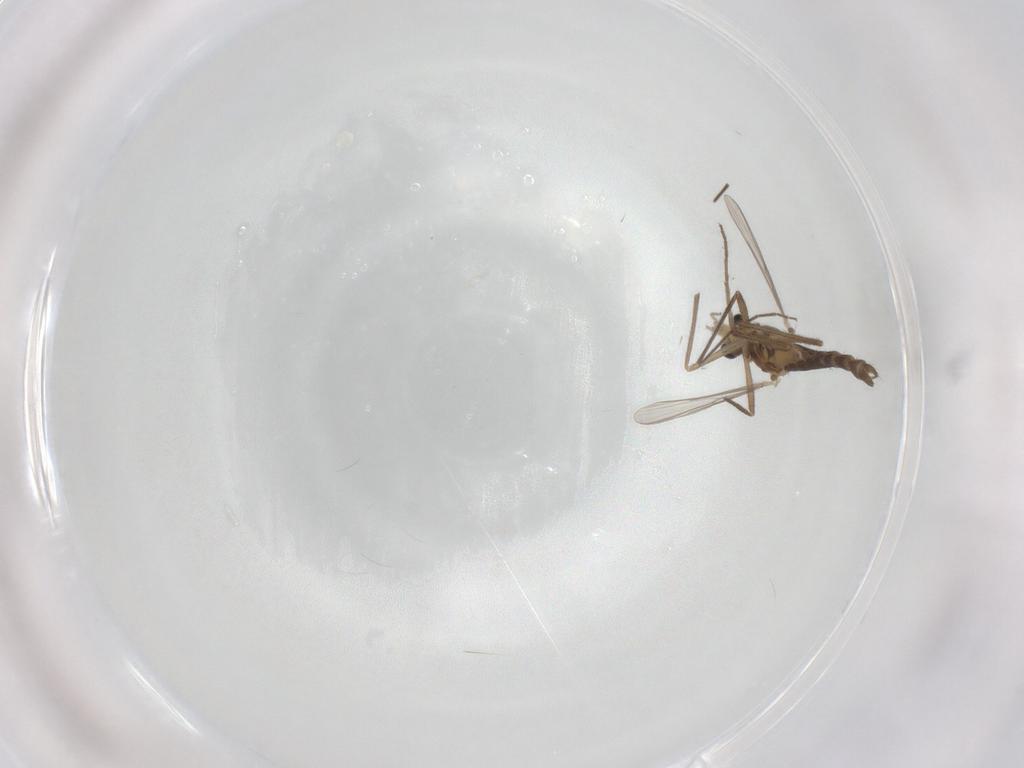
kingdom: Animalia
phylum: Arthropoda
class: Insecta
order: Diptera
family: Chironomidae
